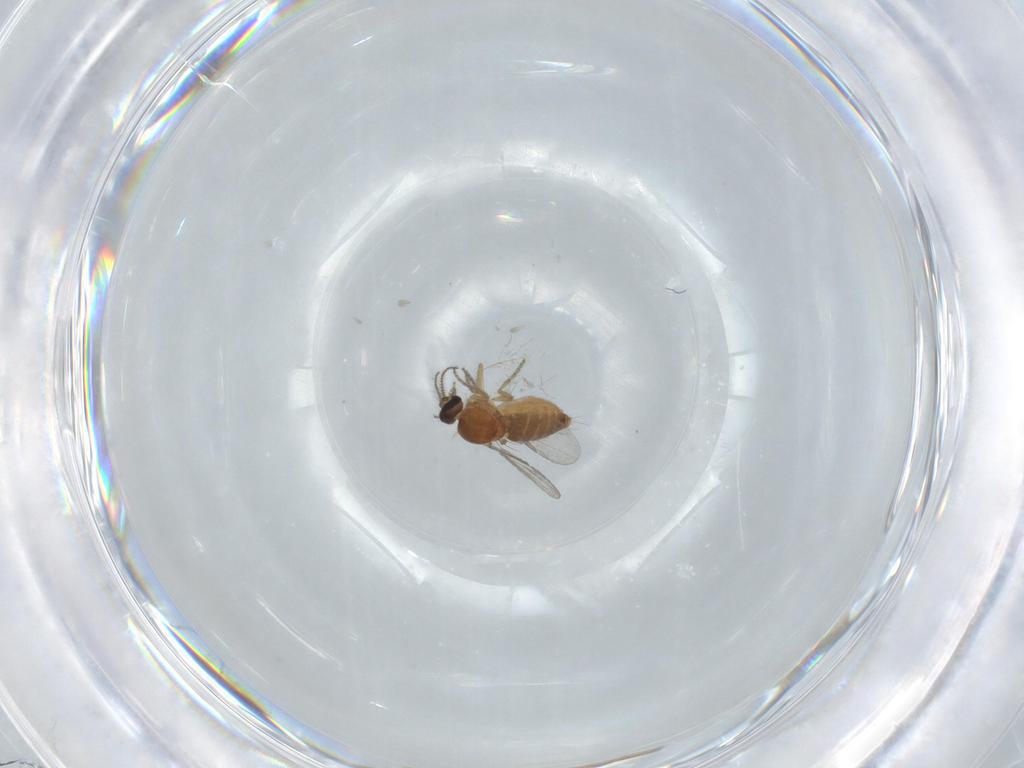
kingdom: Animalia
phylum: Arthropoda
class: Insecta
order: Diptera
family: Ceratopogonidae
